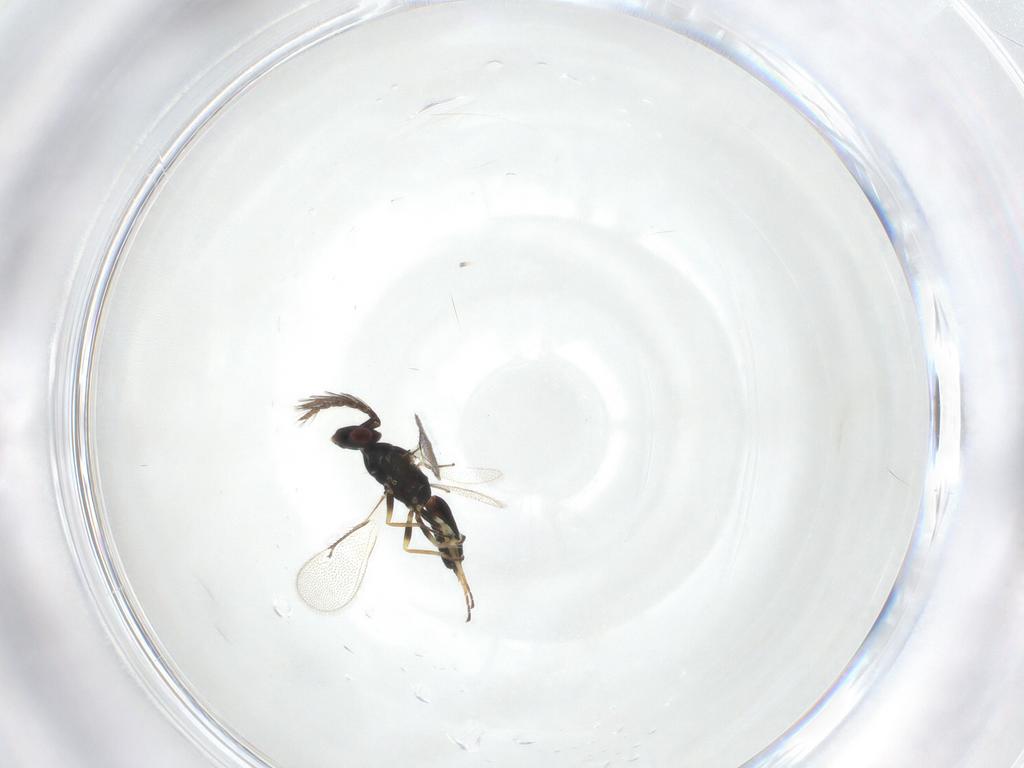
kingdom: Animalia
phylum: Arthropoda
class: Insecta
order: Hymenoptera
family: Eulophidae
